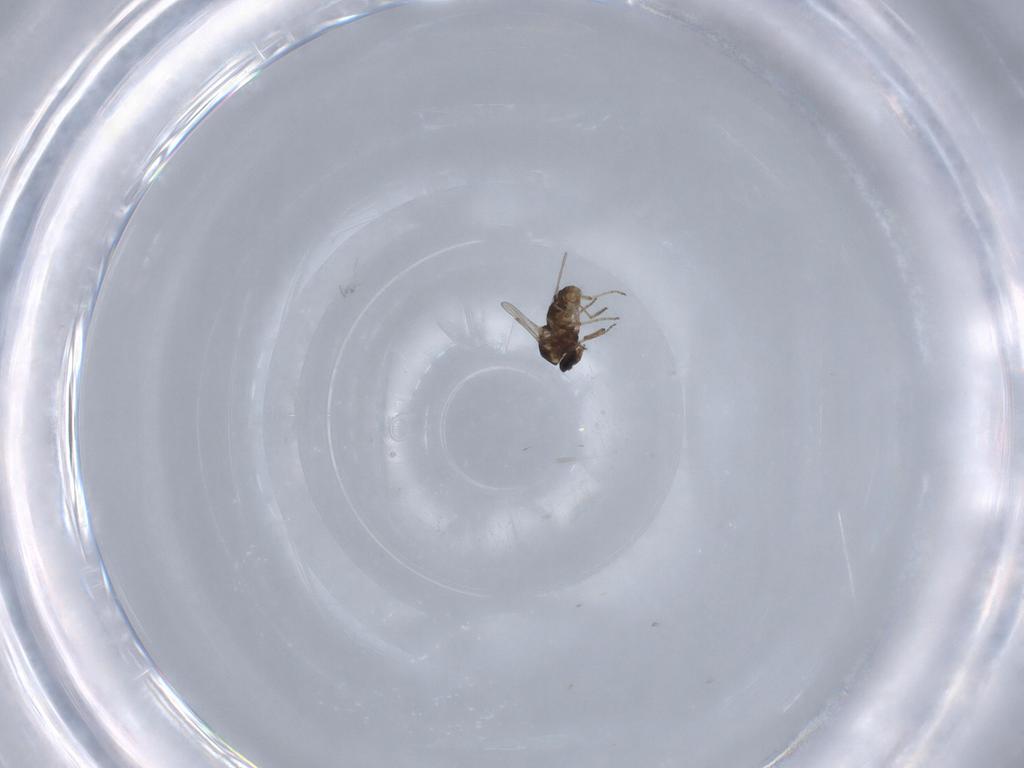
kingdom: Animalia
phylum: Arthropoda
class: Insecta
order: Diptera
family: Ceratopogonidae
